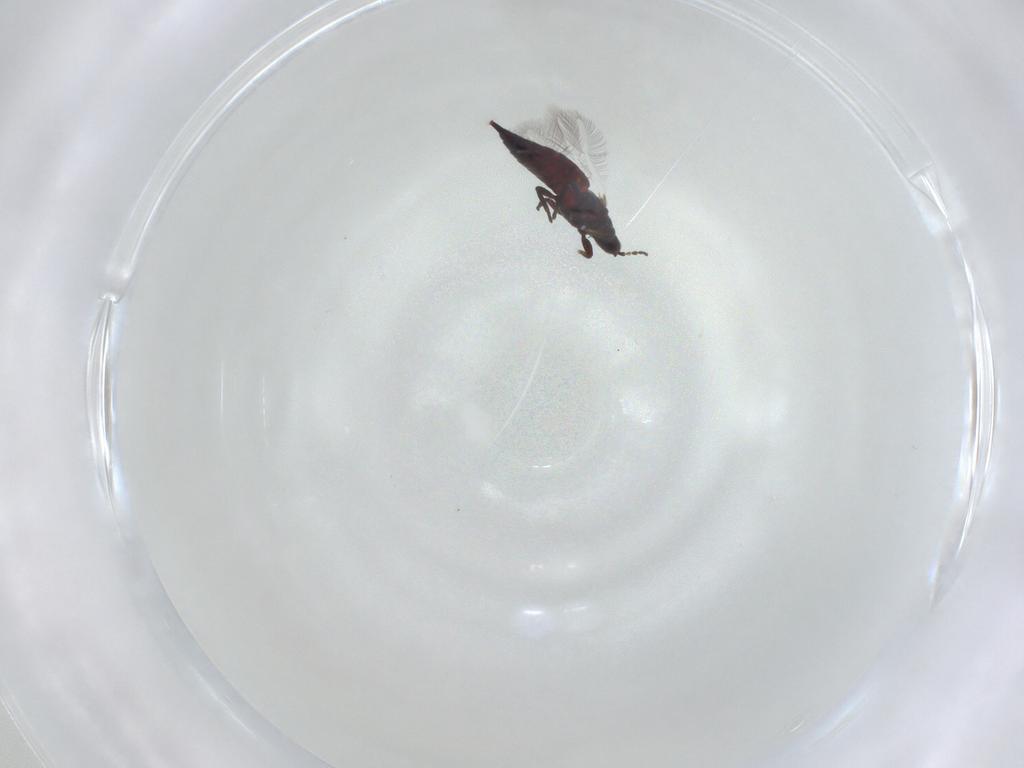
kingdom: Animalia
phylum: Arthropoda
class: Insecta
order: Thysanoptera
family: Phlaeothripidae
